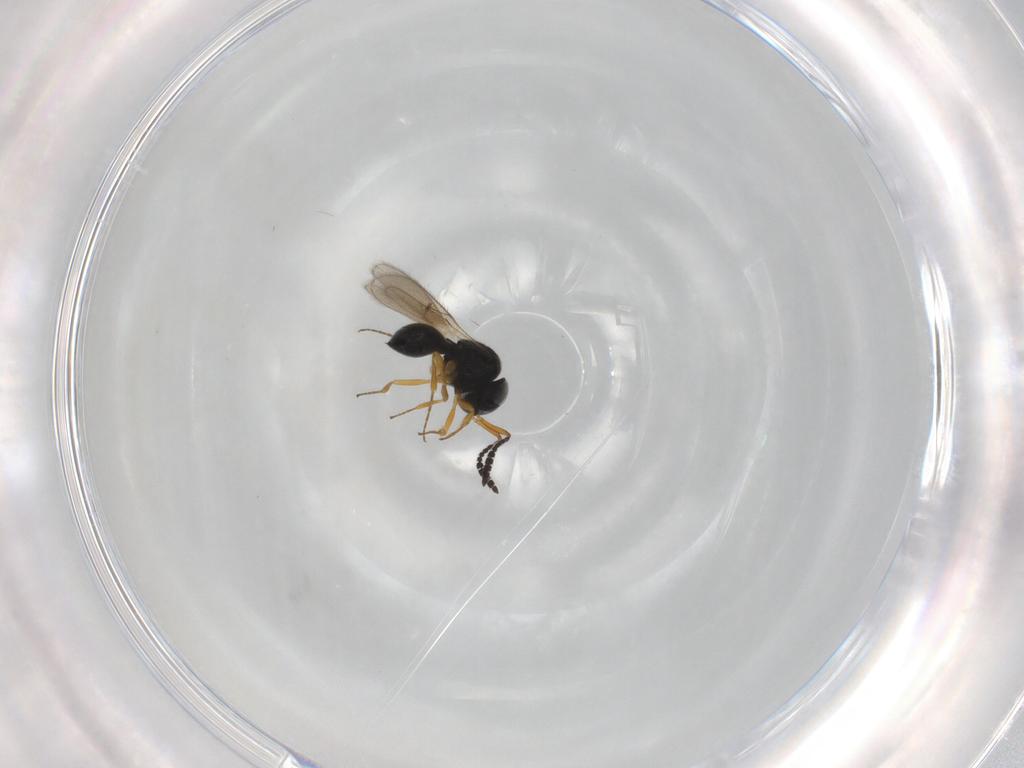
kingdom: Animalia
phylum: Arthropoda
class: Insecta
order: Hymenoptera
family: Scelionidae
